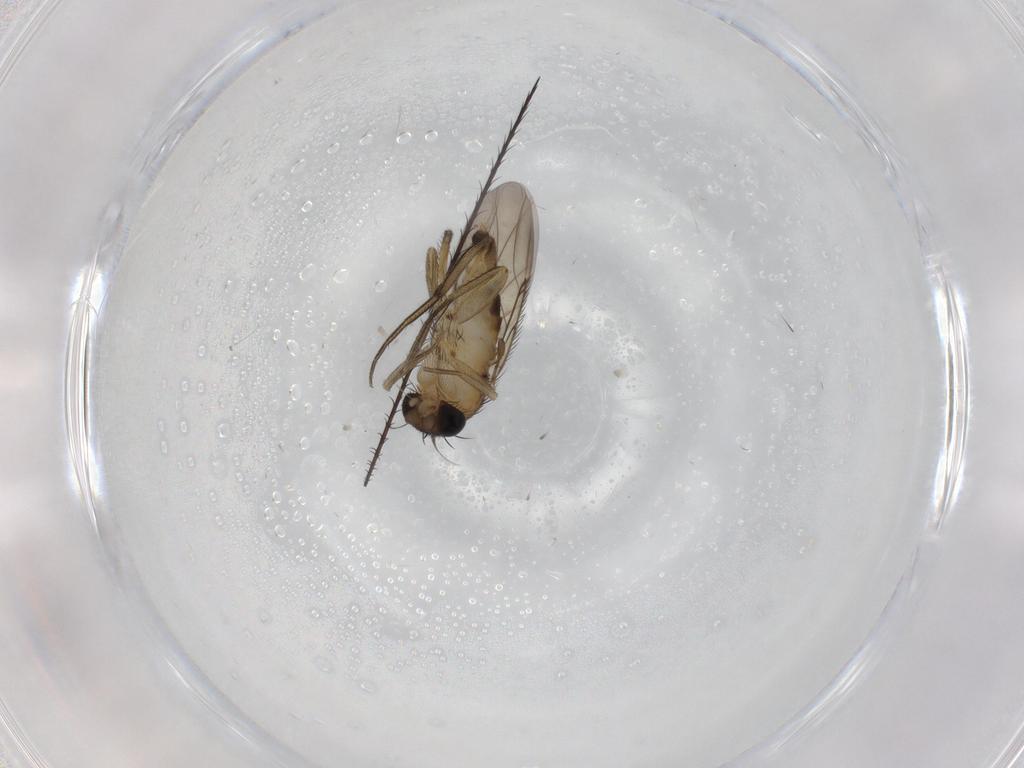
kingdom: Animalia
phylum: Arthropoda
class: Insecta
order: Diptera
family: Phoridae
